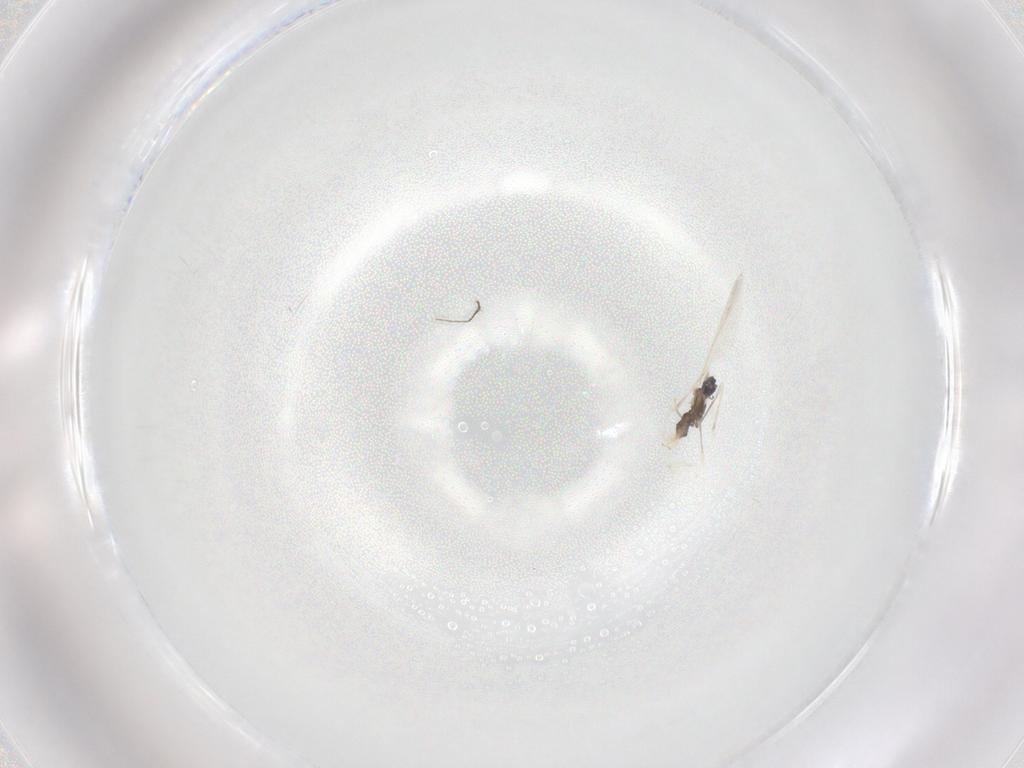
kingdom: Animalia
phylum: Arthropoda
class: Insecta
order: Diptera
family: Cecidomyiidae
